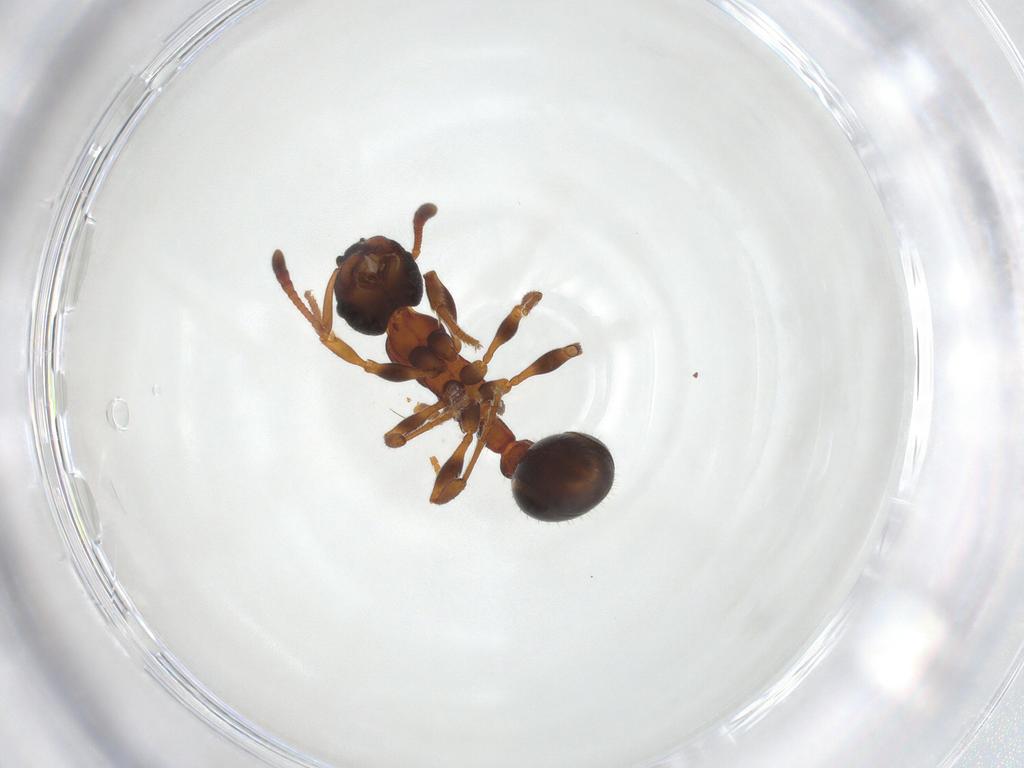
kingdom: Animalia
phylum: Arthropoda
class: Insecta
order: Hymenoptera
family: Formicidae
